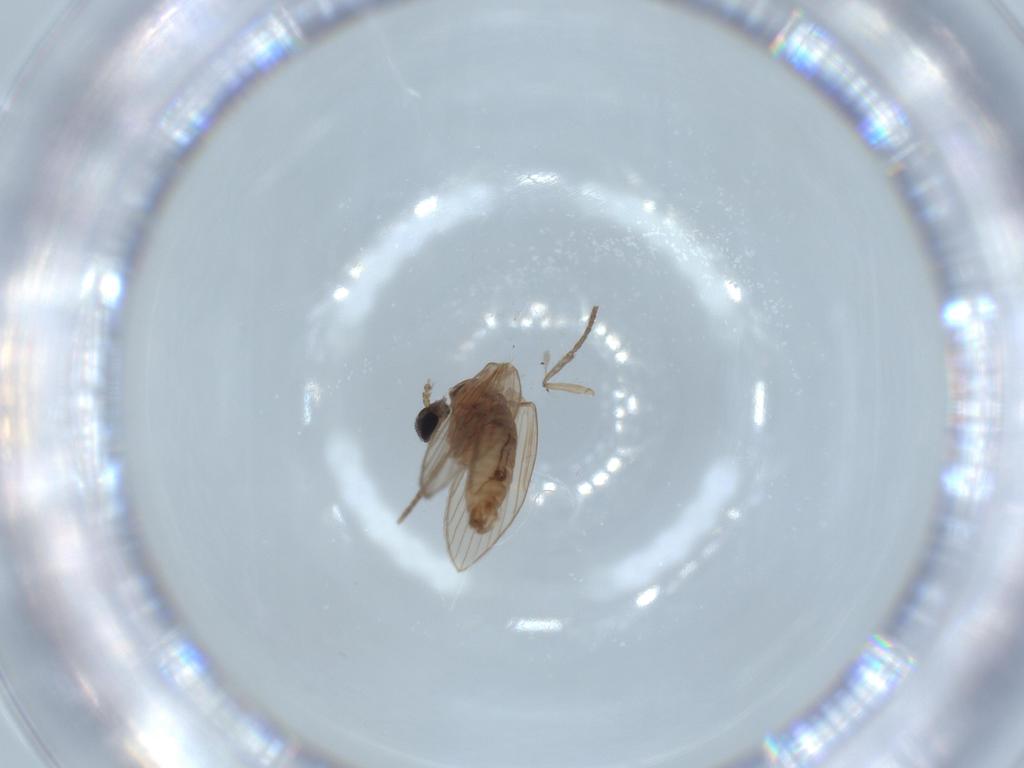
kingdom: Animalia
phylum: Arthropoda
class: Insecta
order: Diptera
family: Psychodidae
